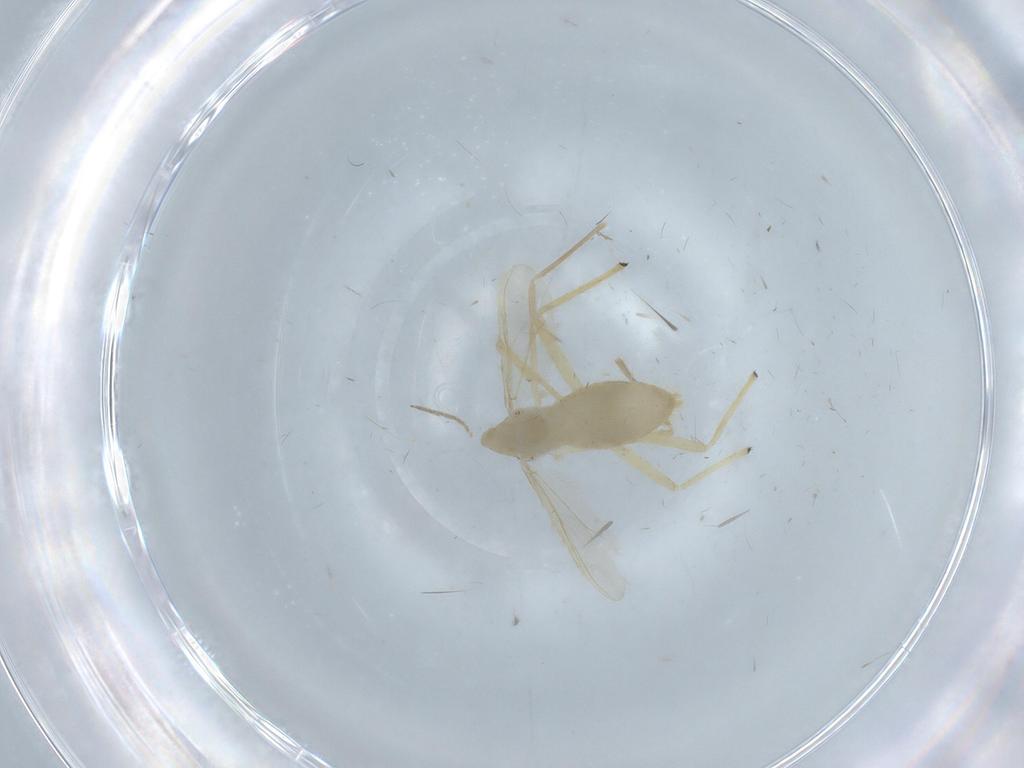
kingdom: Animalia
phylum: Arthropoda
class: Insecta
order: Diptera
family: Chironomidae
